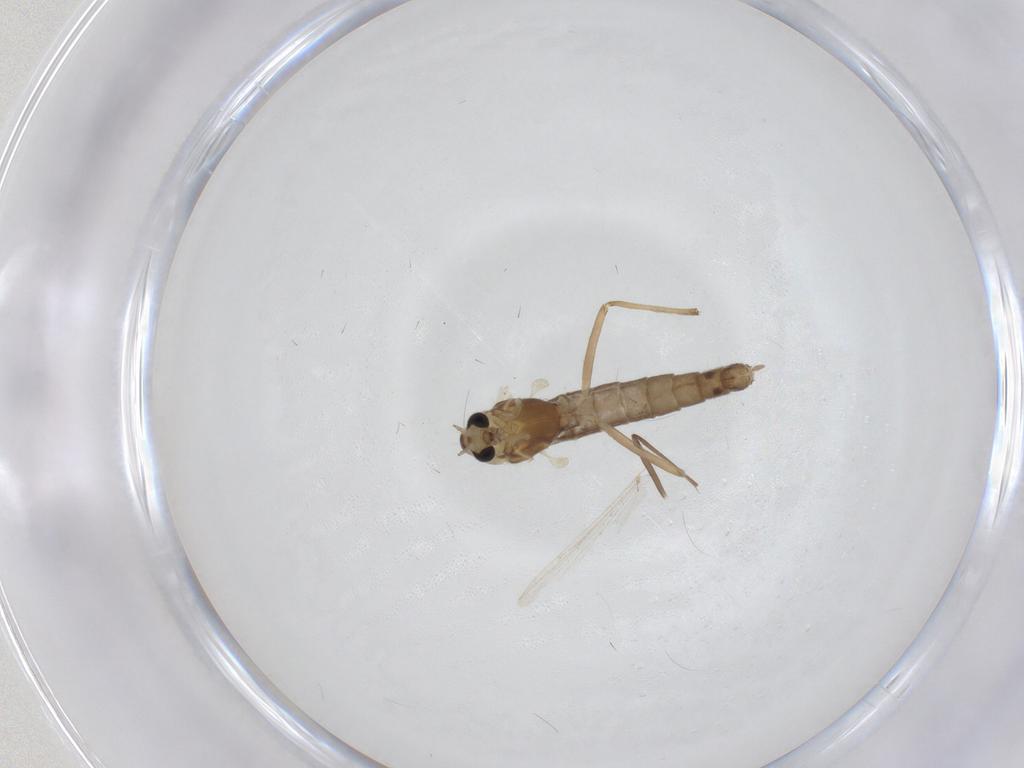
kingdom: Animalia
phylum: Arthropoda
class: Insecta
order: Diptera
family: Chironomidae
